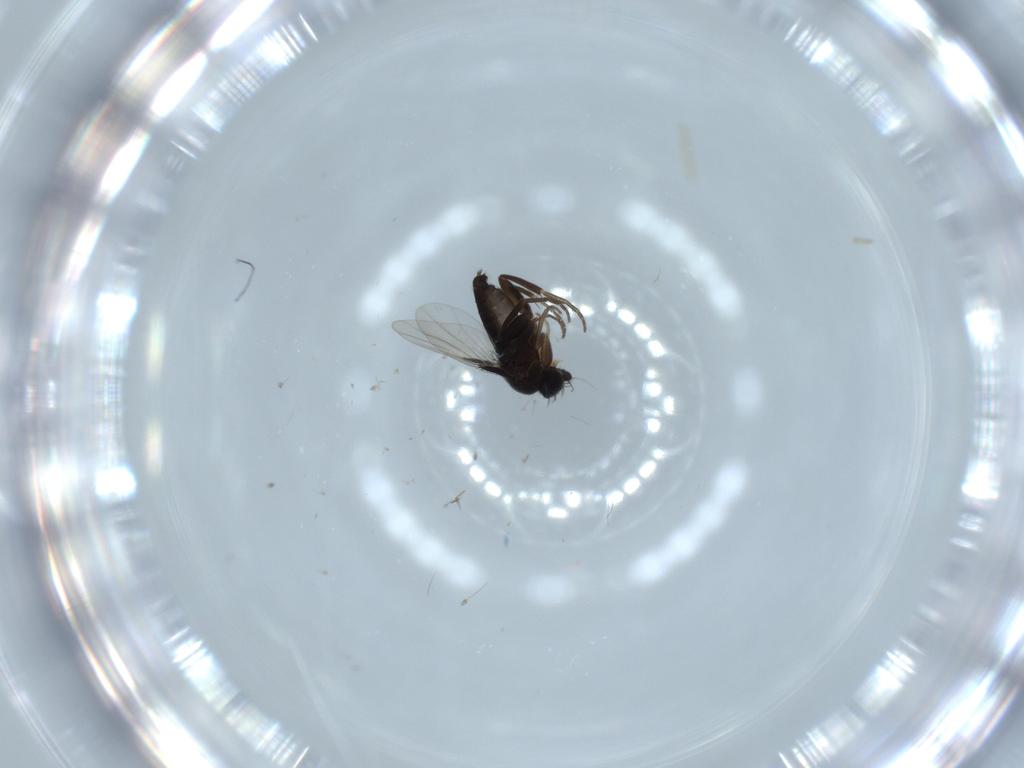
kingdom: Animalia
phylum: Arthropoda
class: Insecta
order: Diptera
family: Phoridae
